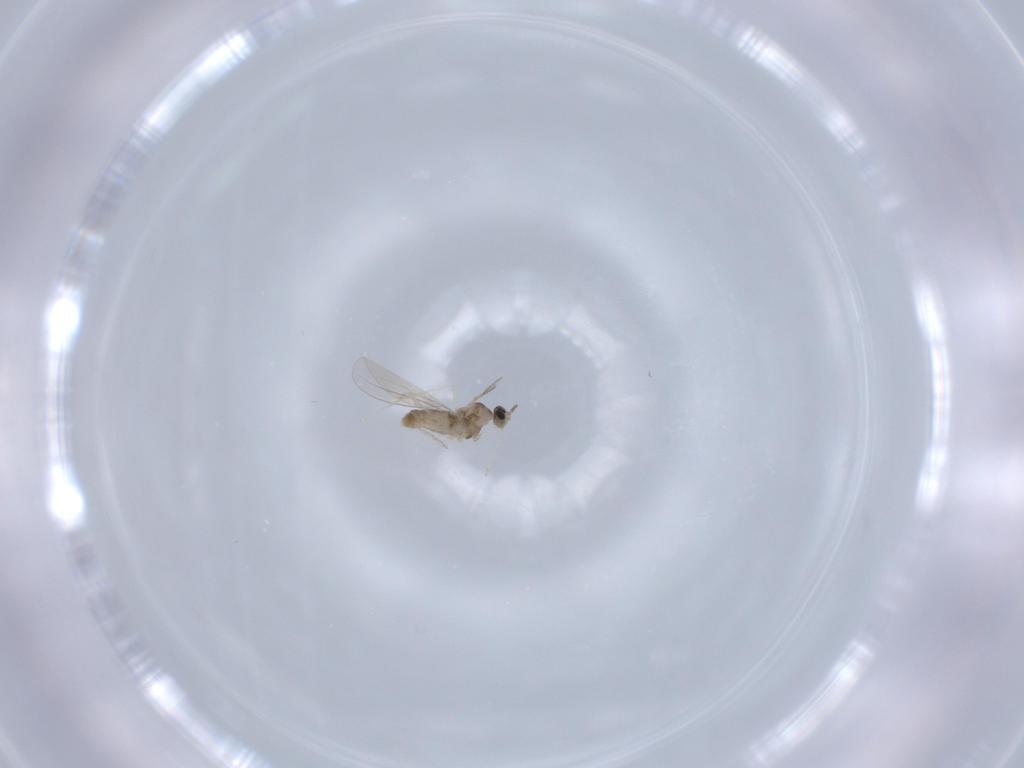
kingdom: Animalia
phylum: Arthropoda
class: Insecta
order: Diptera
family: Cecidomyiidae
